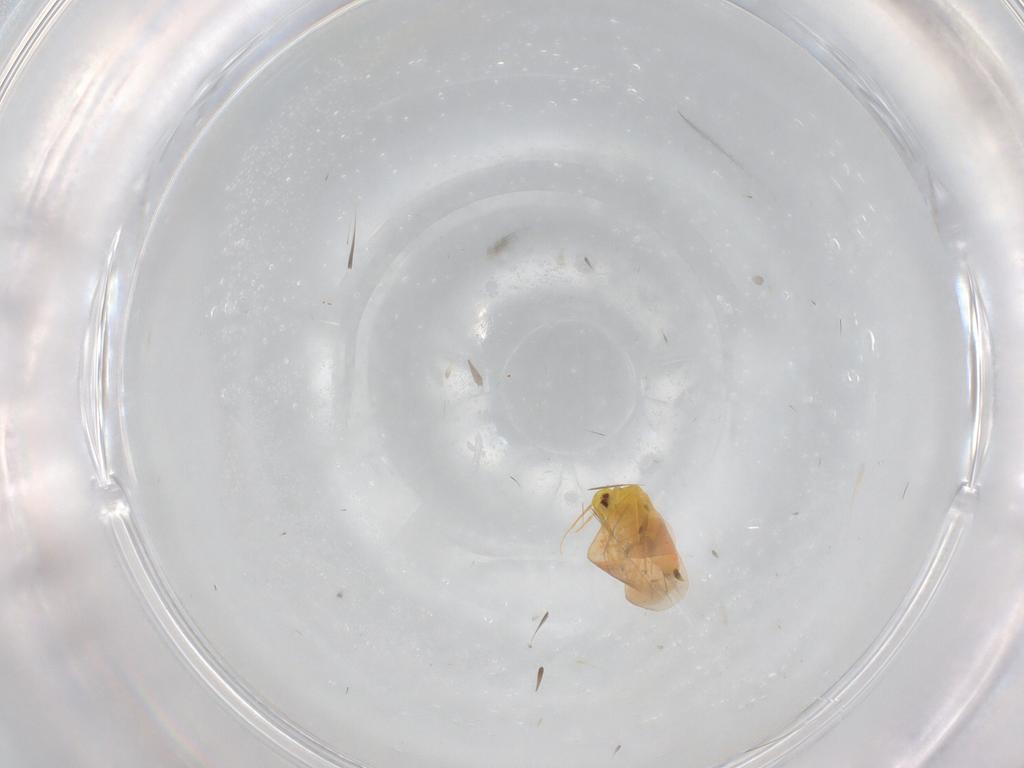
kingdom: Animalia
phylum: Arthropoda
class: Insecta
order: Hemiptera
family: Aleyrodidae
